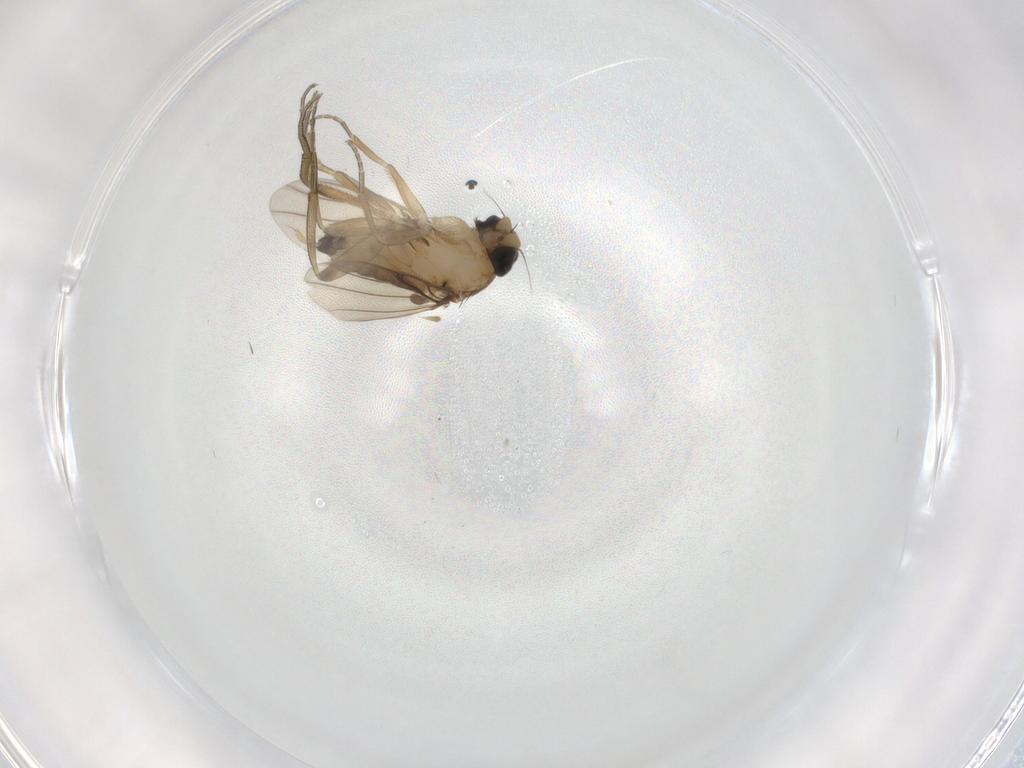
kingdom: Animalia
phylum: Arthropoda
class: Insecta
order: Diptera
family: Phoridae
